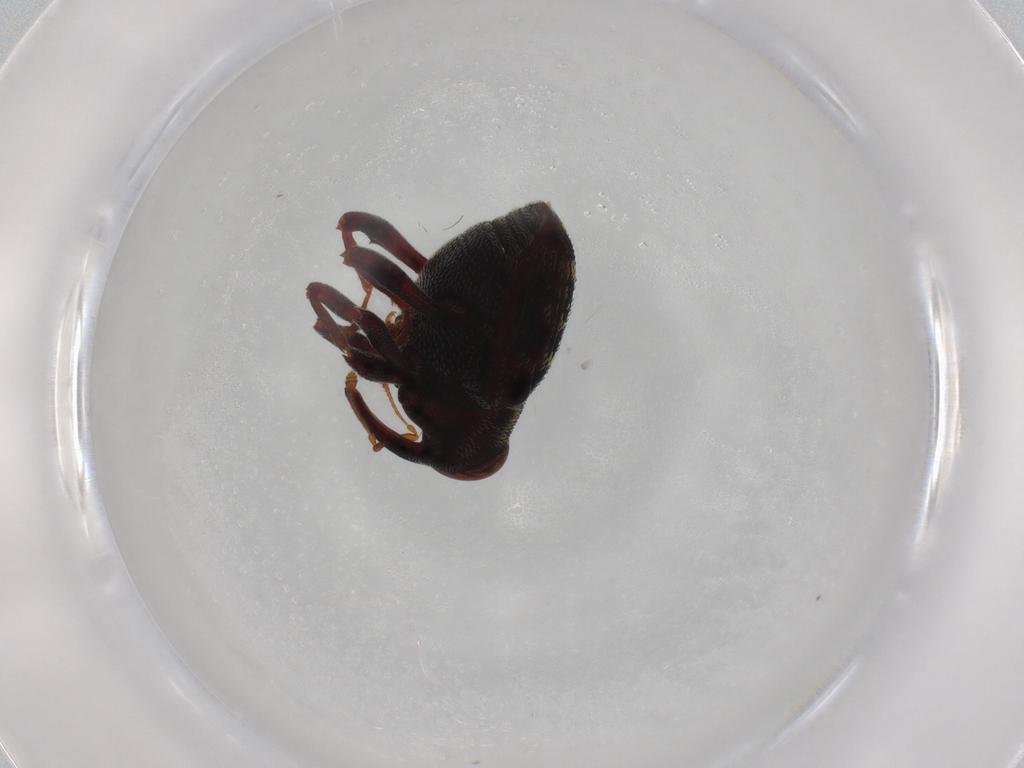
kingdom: Animalia
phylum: Arthropoda
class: Insecta
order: Coleoptera
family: Curculionidae
